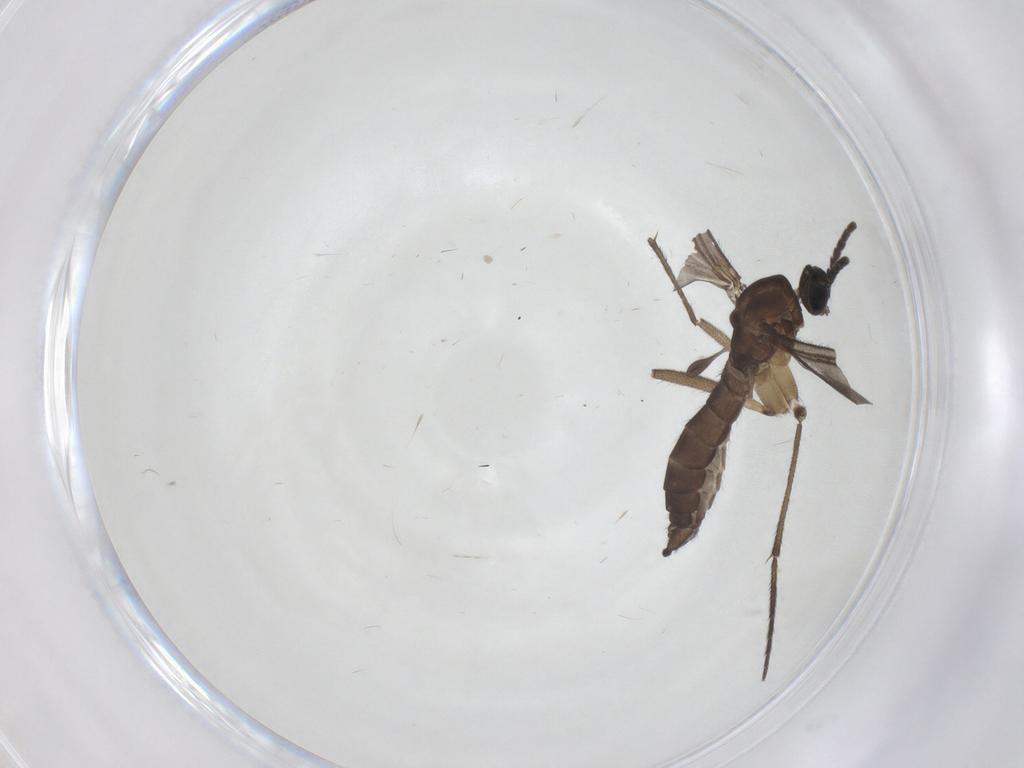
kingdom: Animalia
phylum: Arthropoda
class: Insecta
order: Diptera
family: Sciaridae
